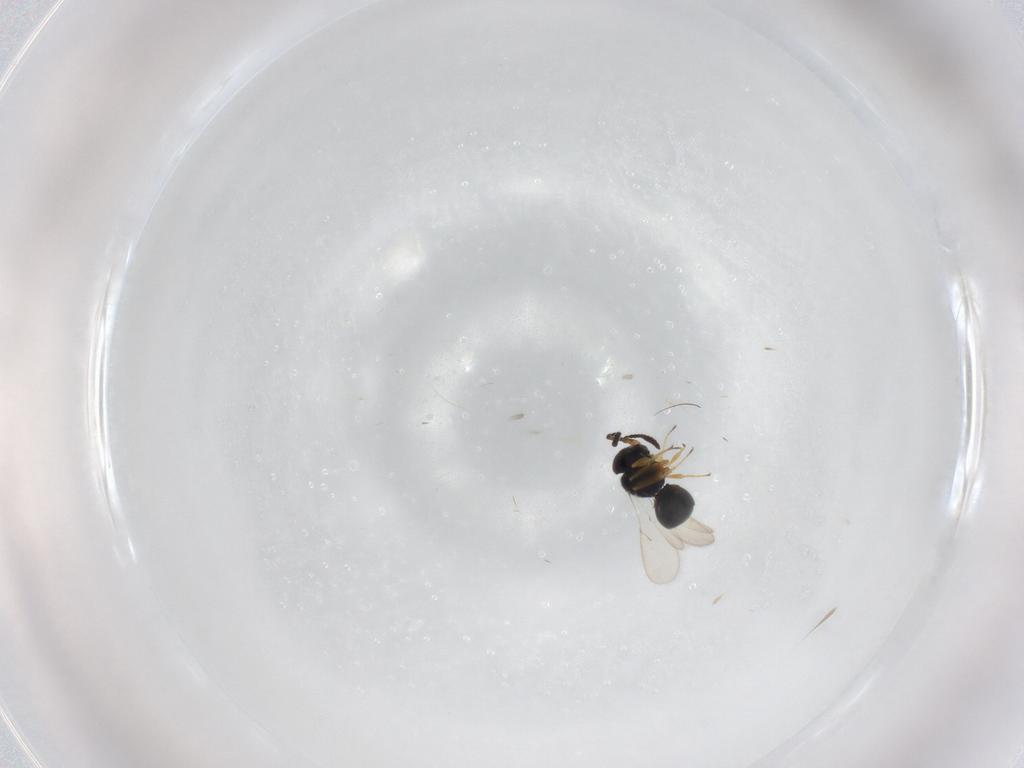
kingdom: Animalia
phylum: Arthropoda
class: Insecta
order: Hymenoptera
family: Scelionidae
